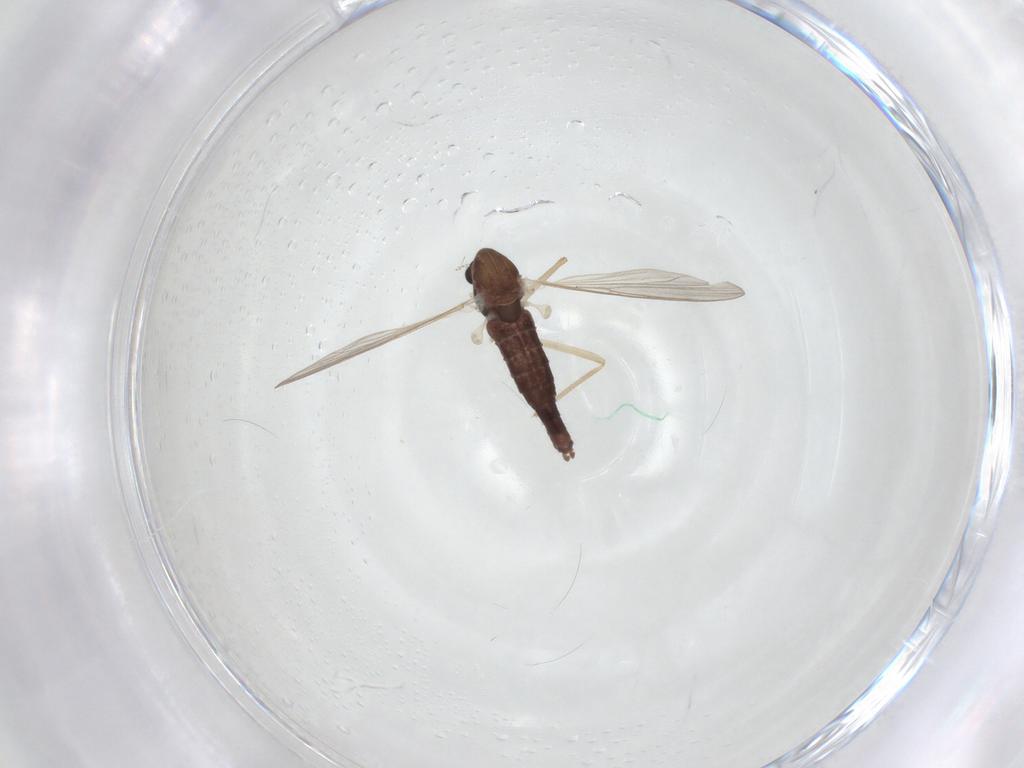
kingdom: Animalia
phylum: Arthropoda
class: Insecta
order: Diptera
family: Chironomidae
